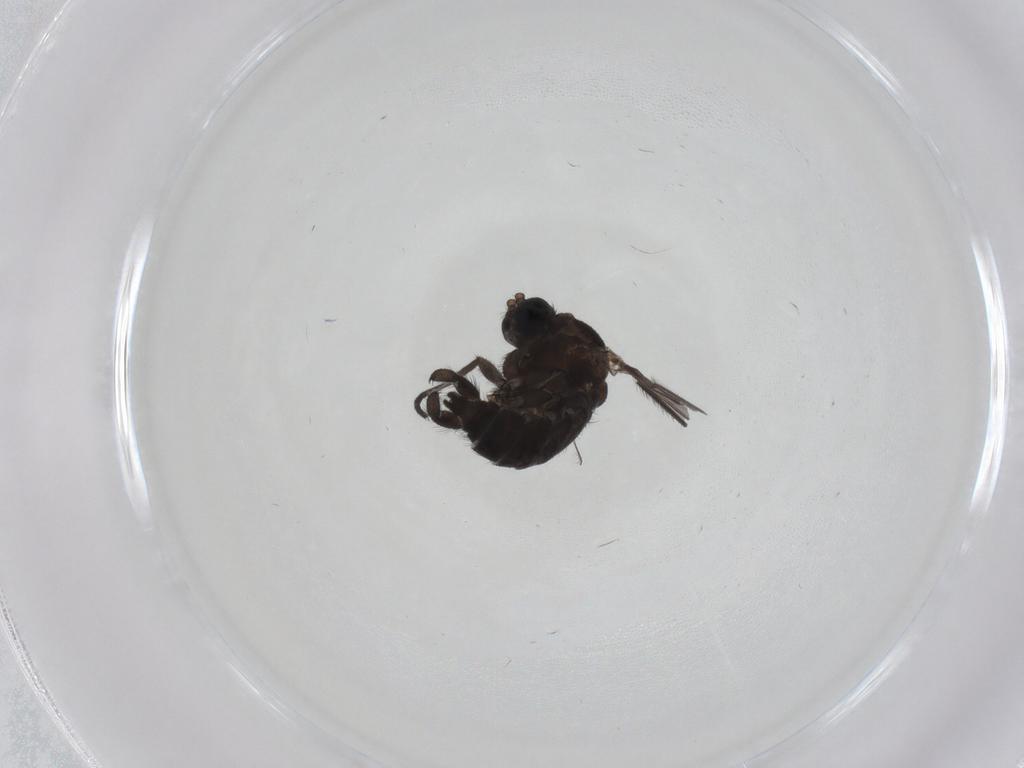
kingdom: Animalia
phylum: Arthropoda
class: Insecta
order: Diptera
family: Sciaridae
